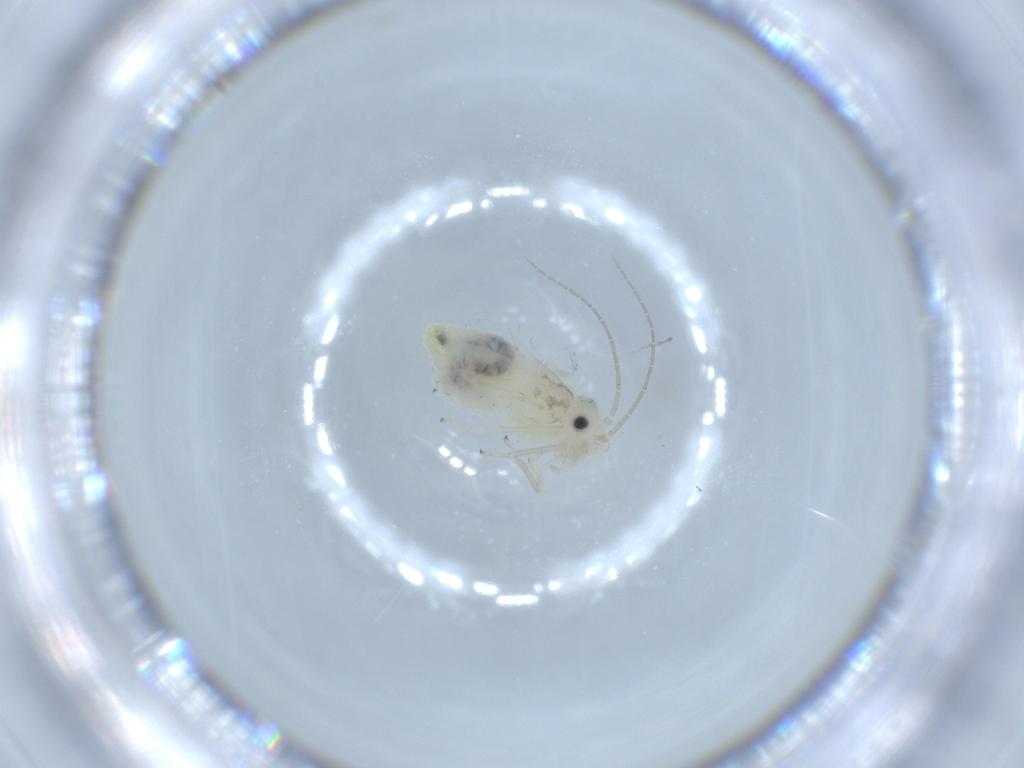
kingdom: Animalia
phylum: Arthropoda
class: Insecta
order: Psocodea
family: Caeciliusidae
